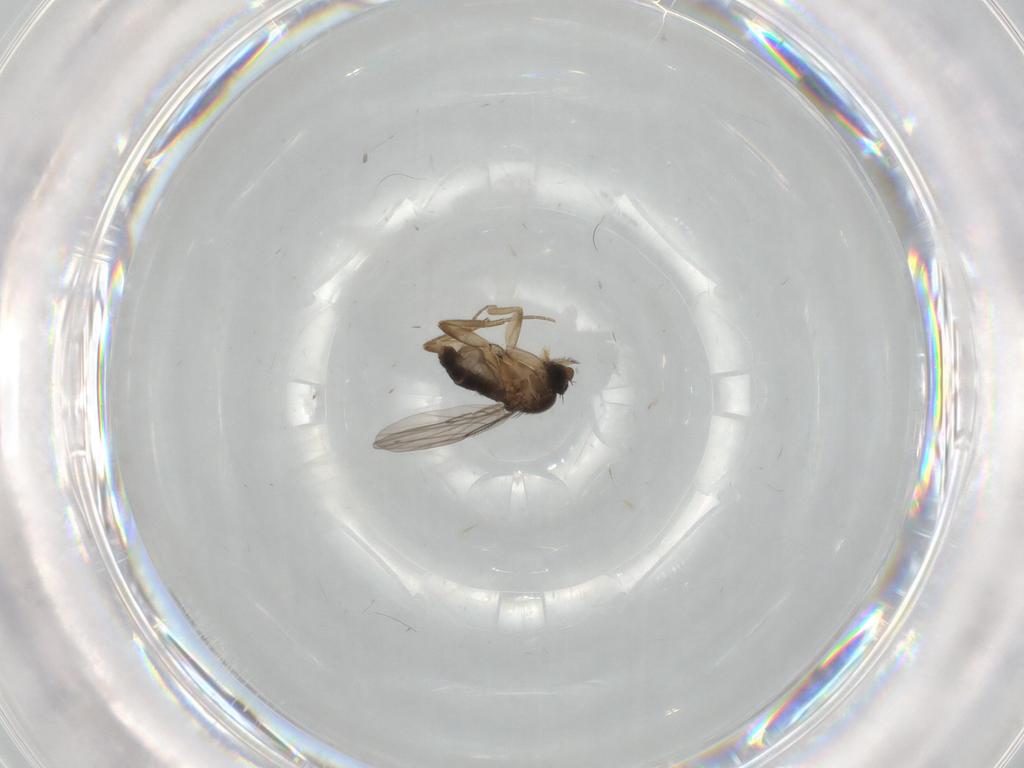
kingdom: Animalia
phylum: Arthropoda
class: Insecta
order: Diptera
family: Phoridae
